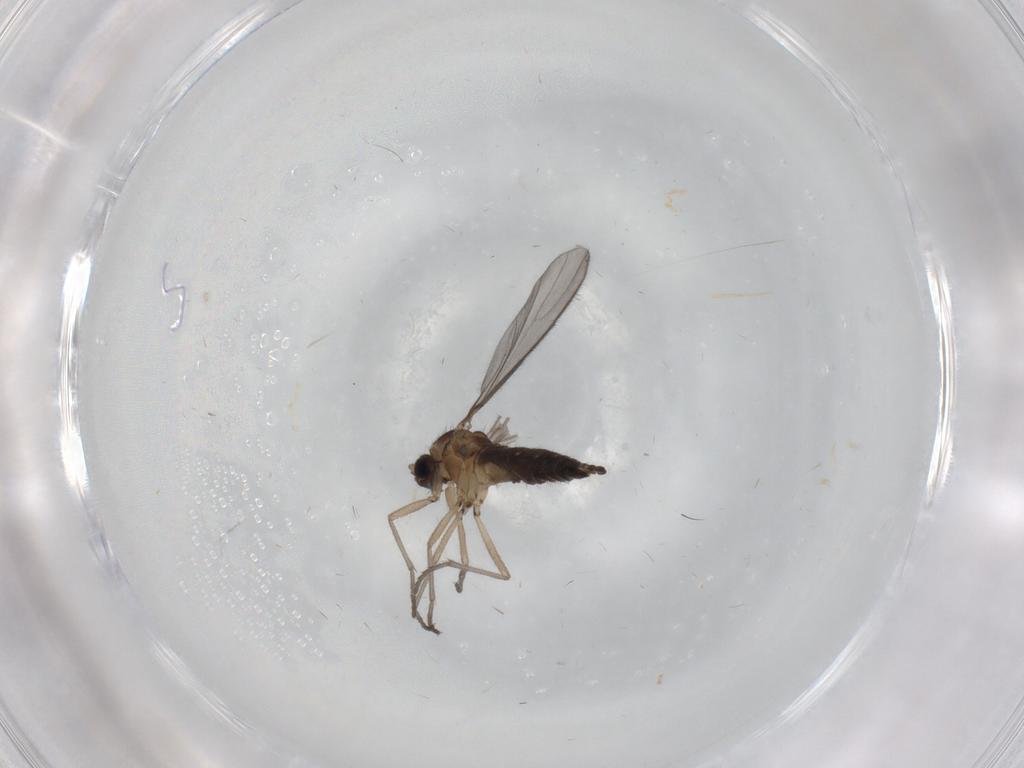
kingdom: Animalia
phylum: Arthropoda
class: Insecta
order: Diptera
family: Sciaridae
